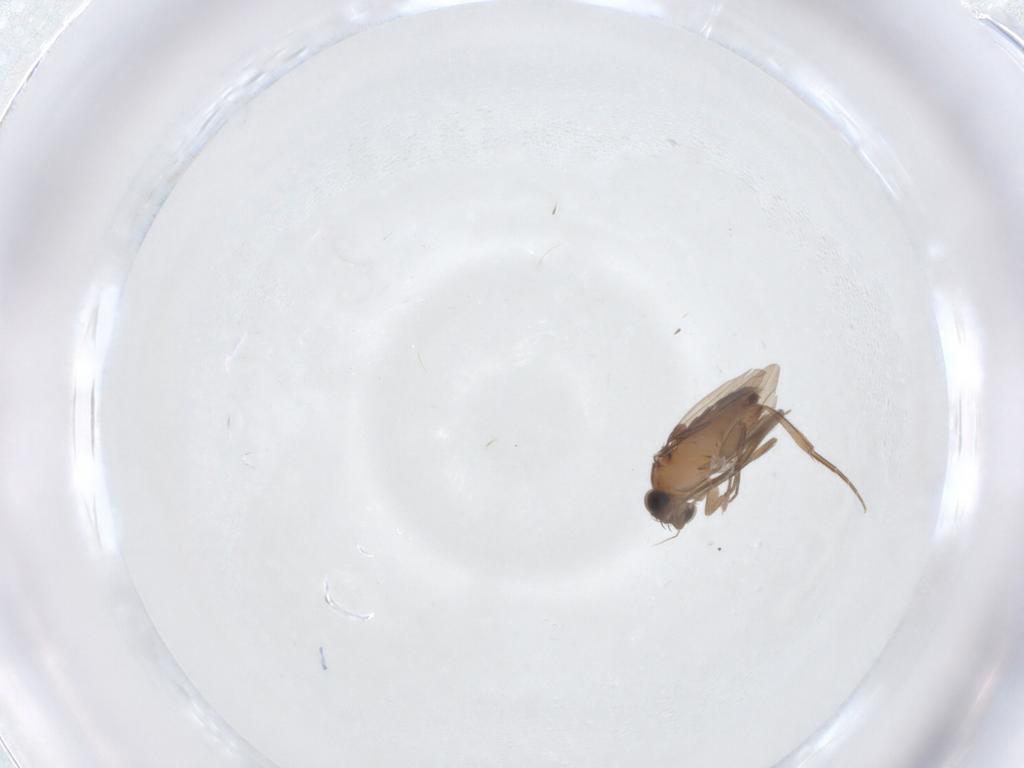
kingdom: Animalia
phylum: Arthropoda
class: Insecta
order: Diptera
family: Phoridae
